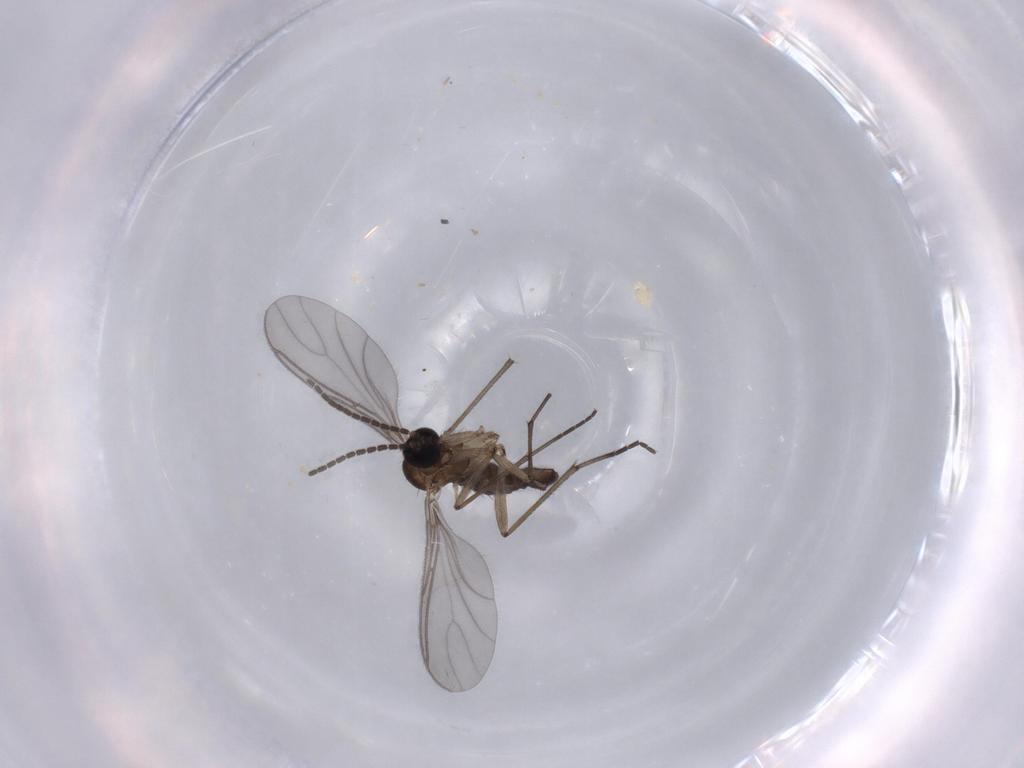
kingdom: Animalia
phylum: Arthropoda
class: Insecta
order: Diptera
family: Sciaridae
